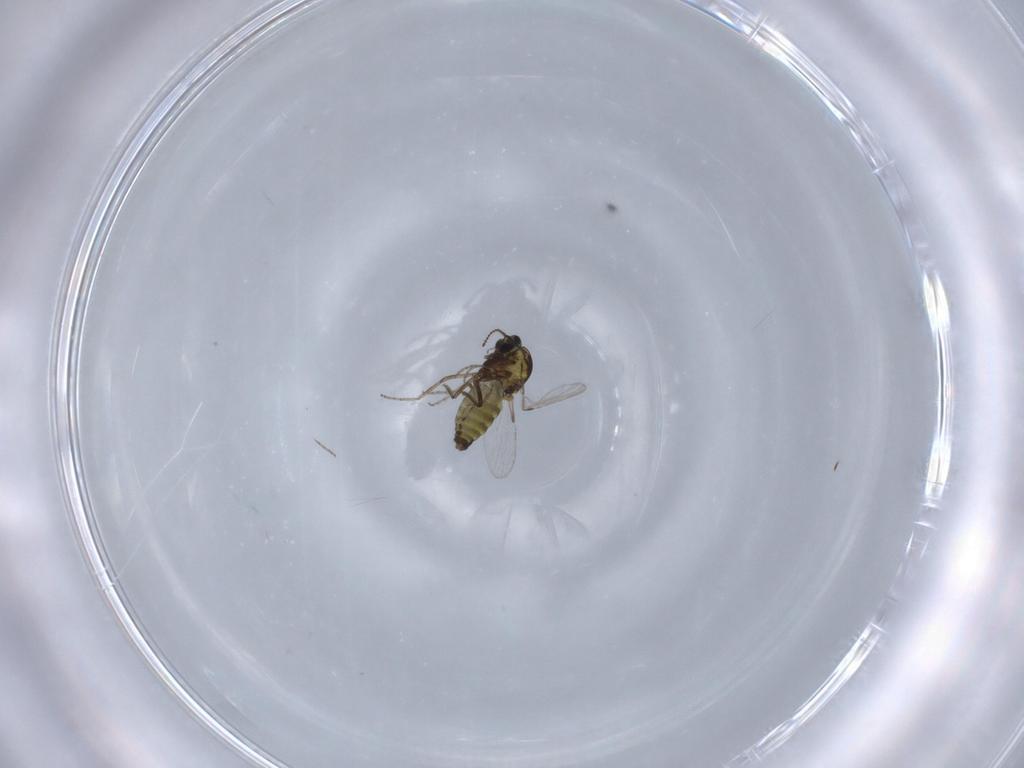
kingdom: Animalia
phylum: Arthropoda
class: Insecta
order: Diptera
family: Ceratopogonidae
